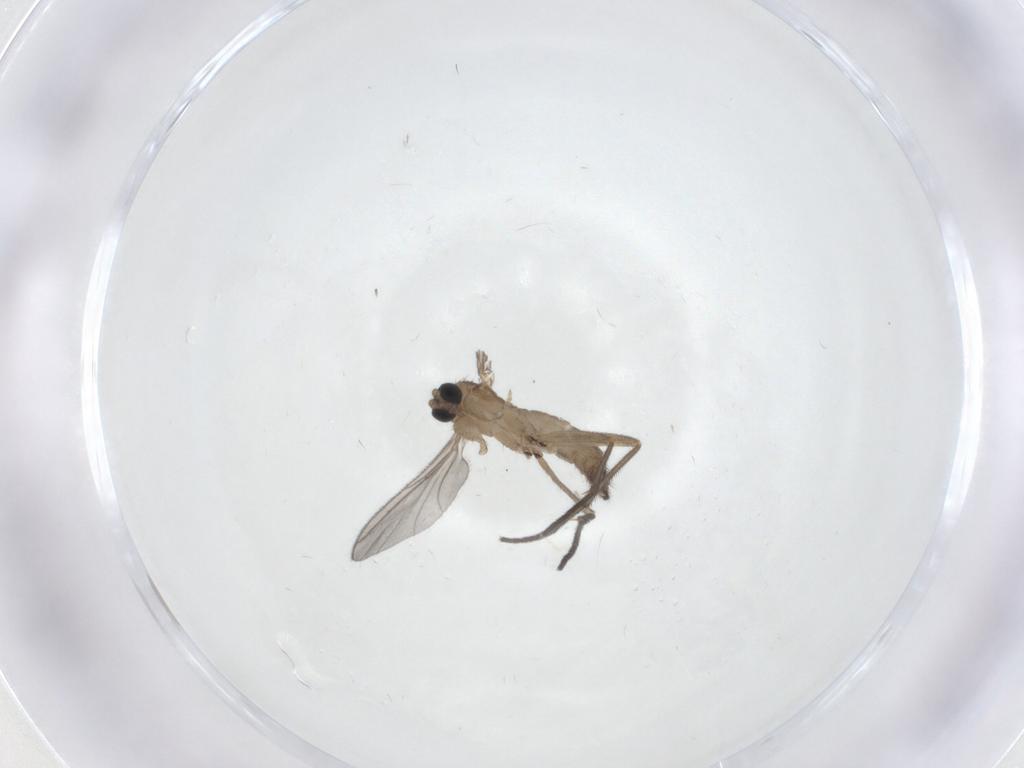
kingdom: Animalia
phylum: Arthropoda
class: Insecta
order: Diptera
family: Sciaridae
